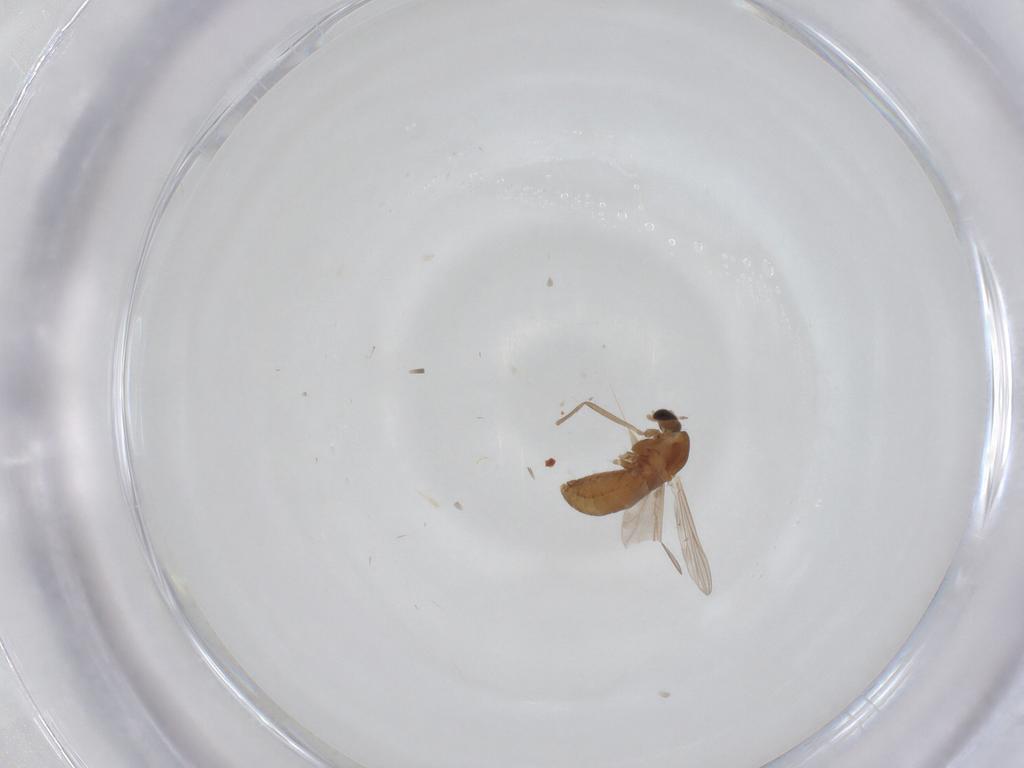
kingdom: Animalia
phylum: Arthropoda
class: Insecta
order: Diptera
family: Chironomidae
